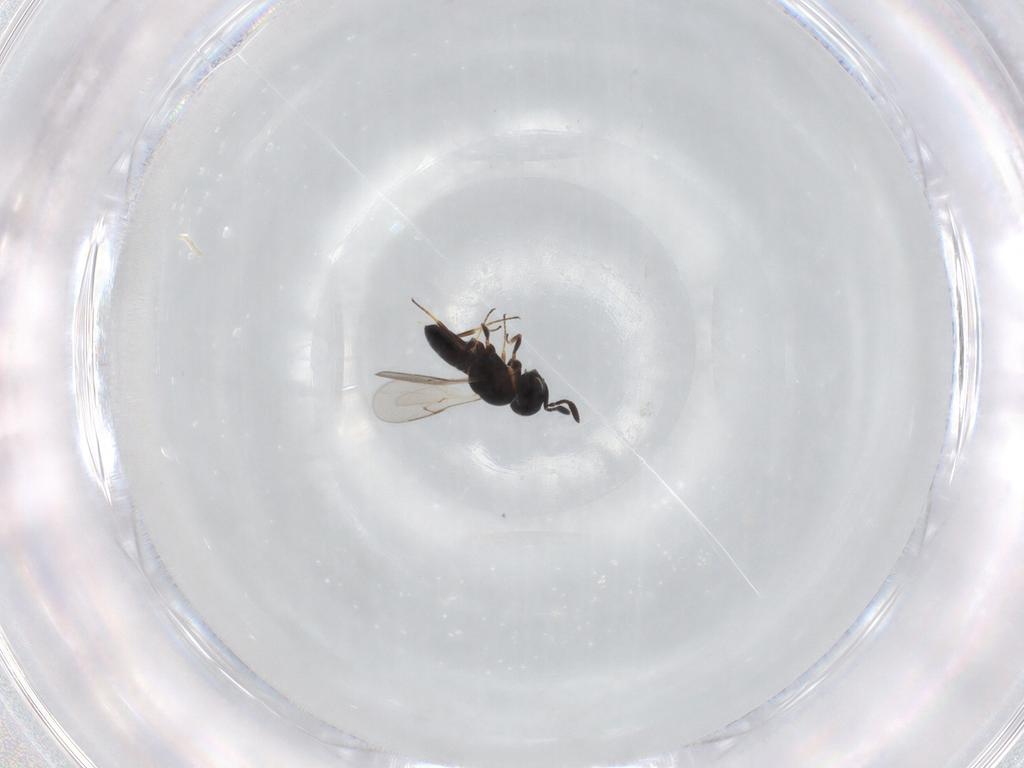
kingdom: Animalia
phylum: Arthropoda
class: Insecta
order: Hymenoptera
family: Scelionidae
